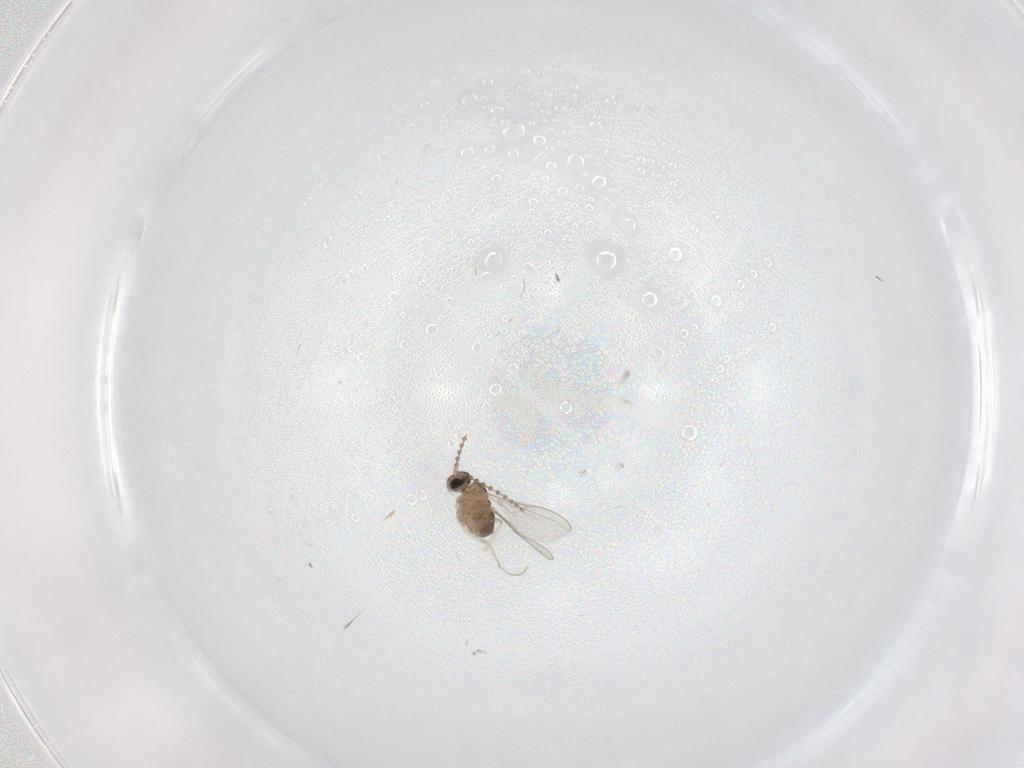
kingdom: Animalia
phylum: Arthropoda
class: Insecta
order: Diptera
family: Cecidomyiidae
